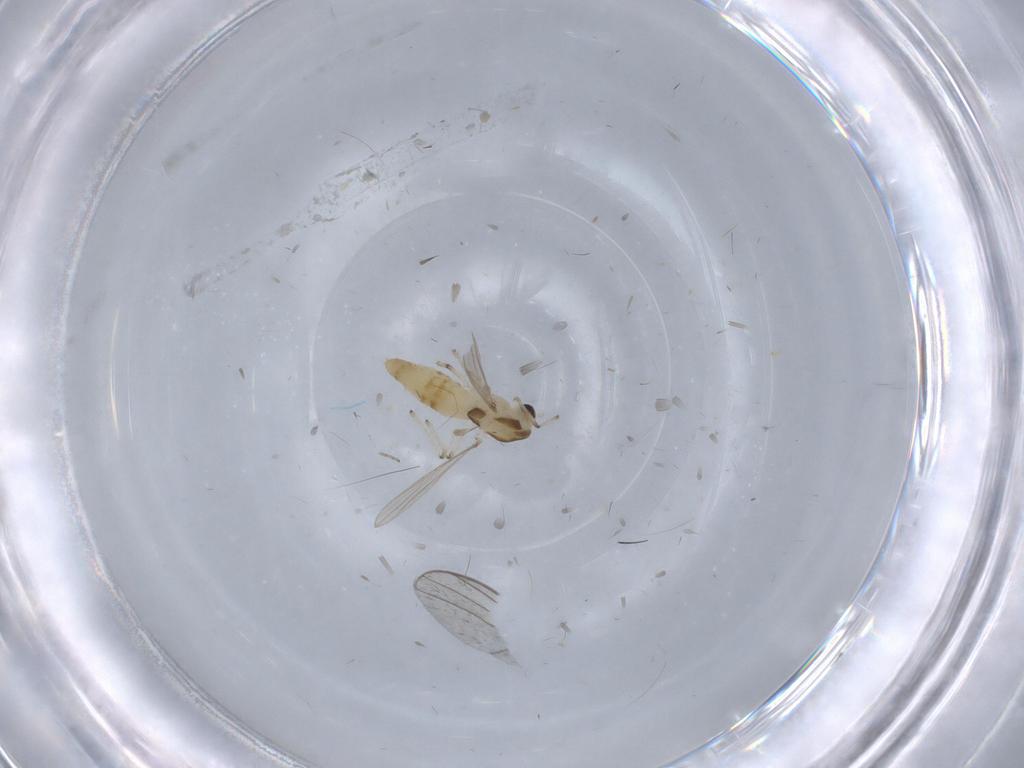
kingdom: Animalia
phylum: Arthropoda
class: Insecta
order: Diptera
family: Chironomidae
